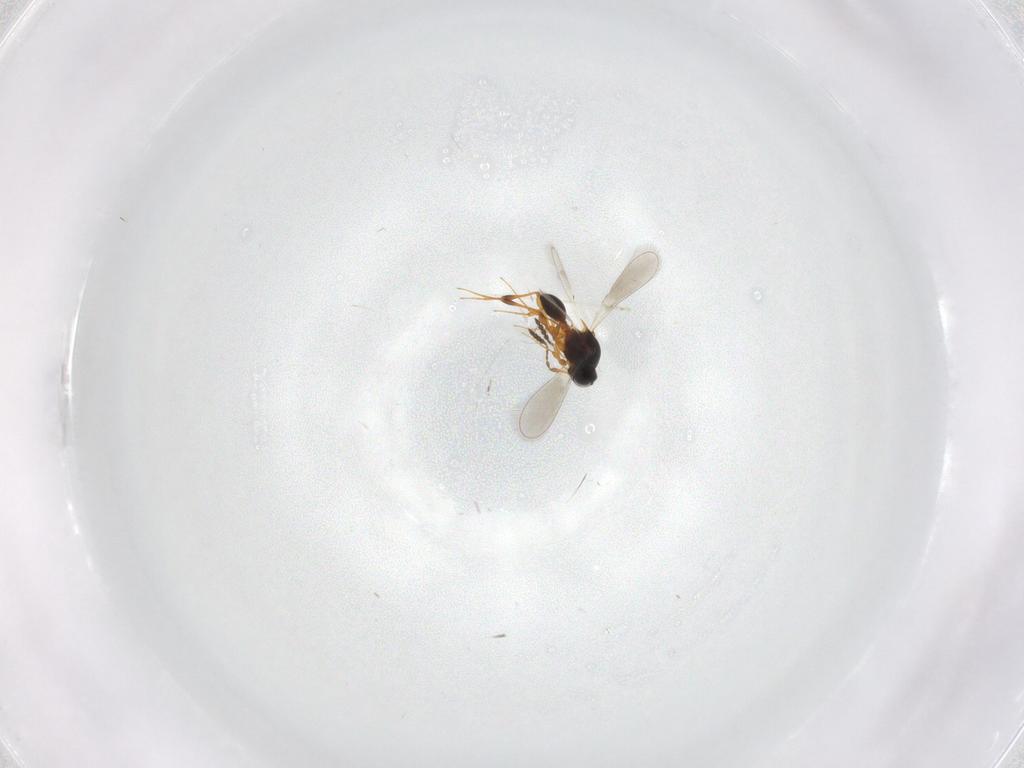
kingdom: Animalia
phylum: Arthropoda
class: Insecta
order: Hymenoptera
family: Platygastridae
